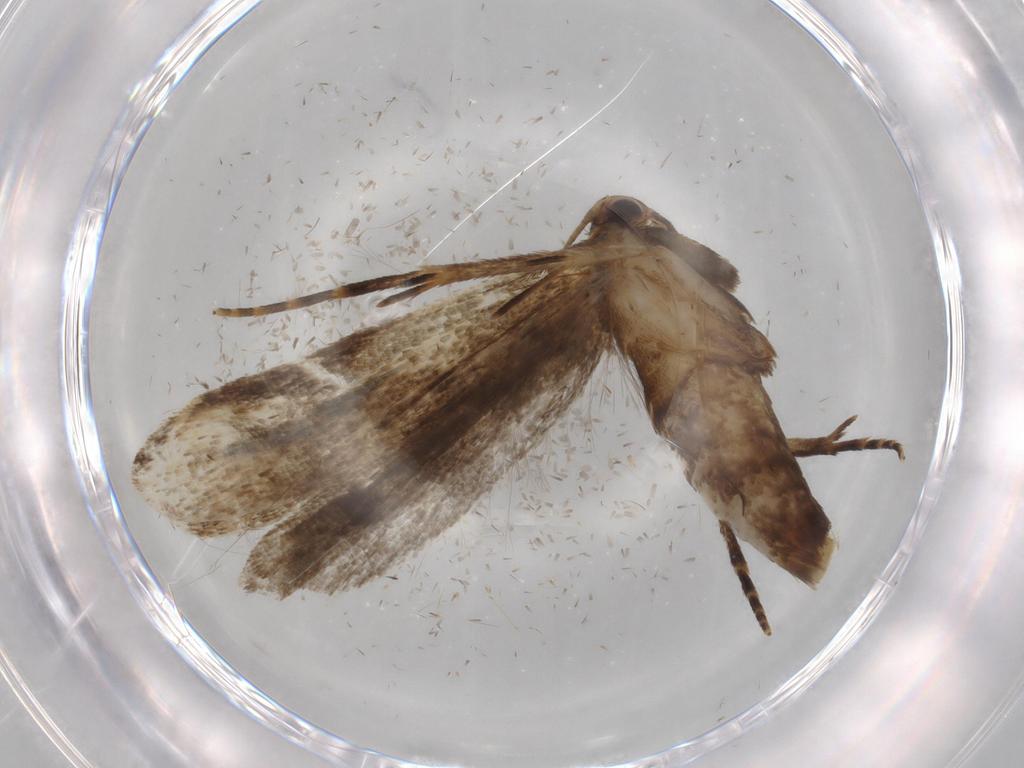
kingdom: Animalia
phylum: Arthropoda
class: Insecta
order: Lepidoptera
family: Gelechiidae
